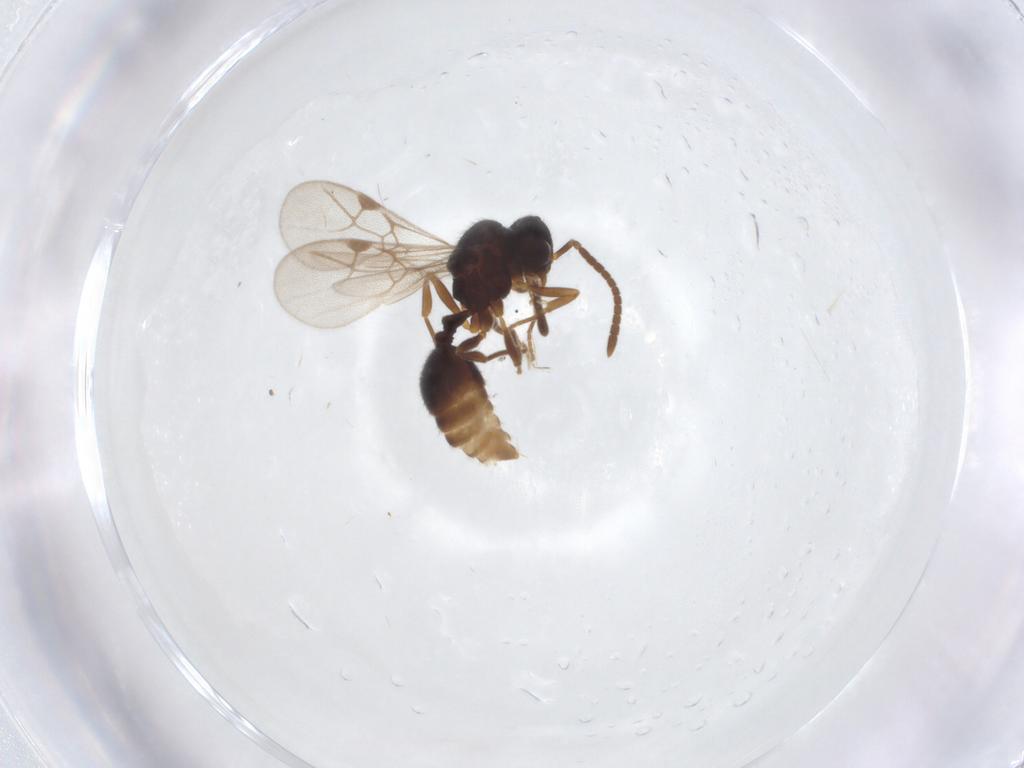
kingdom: Animalia
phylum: Arthropoda
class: Insecta
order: Hymenoptera
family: Formicidae
